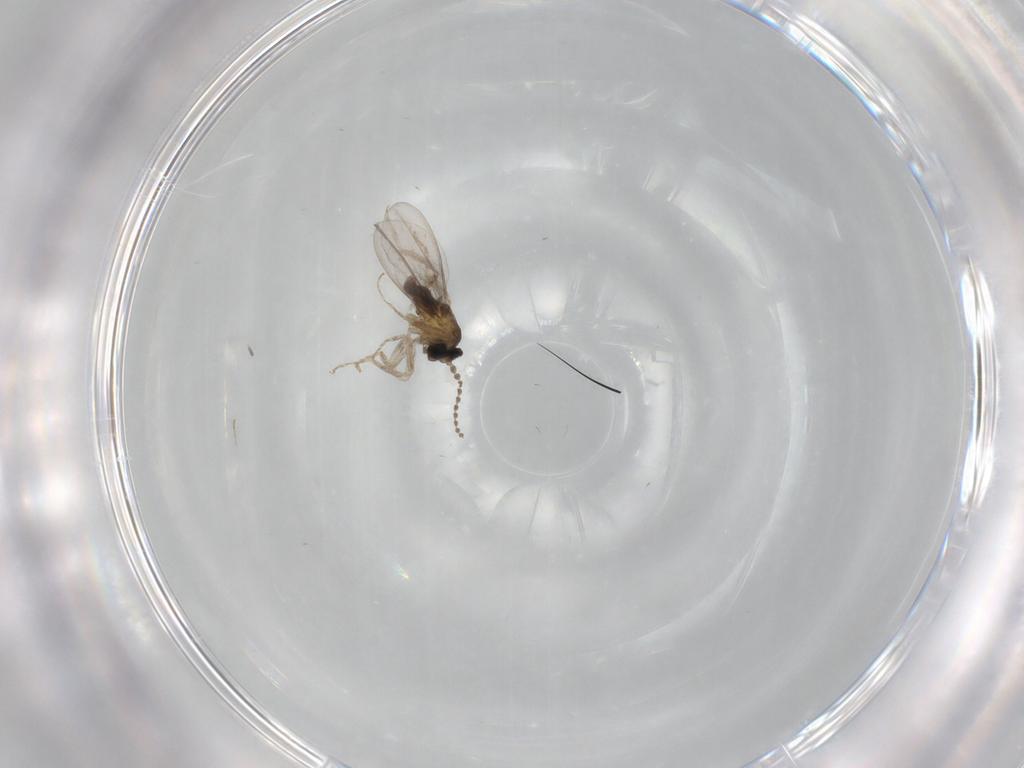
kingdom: Animalia
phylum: Arthropoda
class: Insecta
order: Diptera
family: Cecidomyiidae
